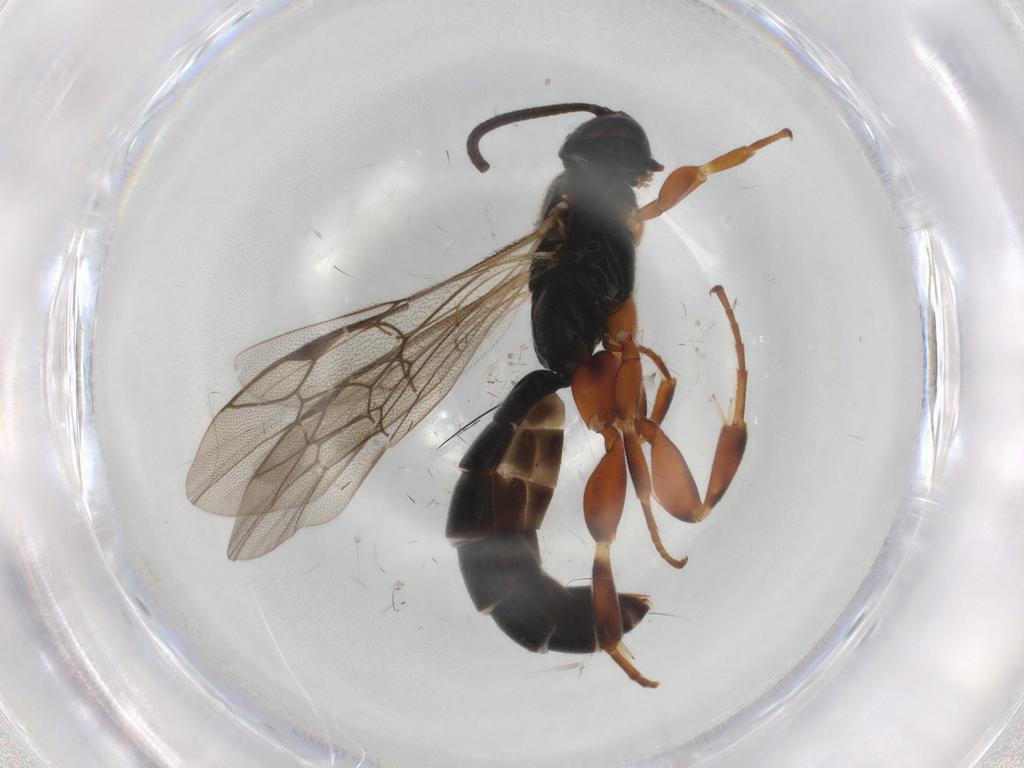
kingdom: Animalia
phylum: Arthropoda
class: Insecta
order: Hymenoptera
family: Ichneumonidae
